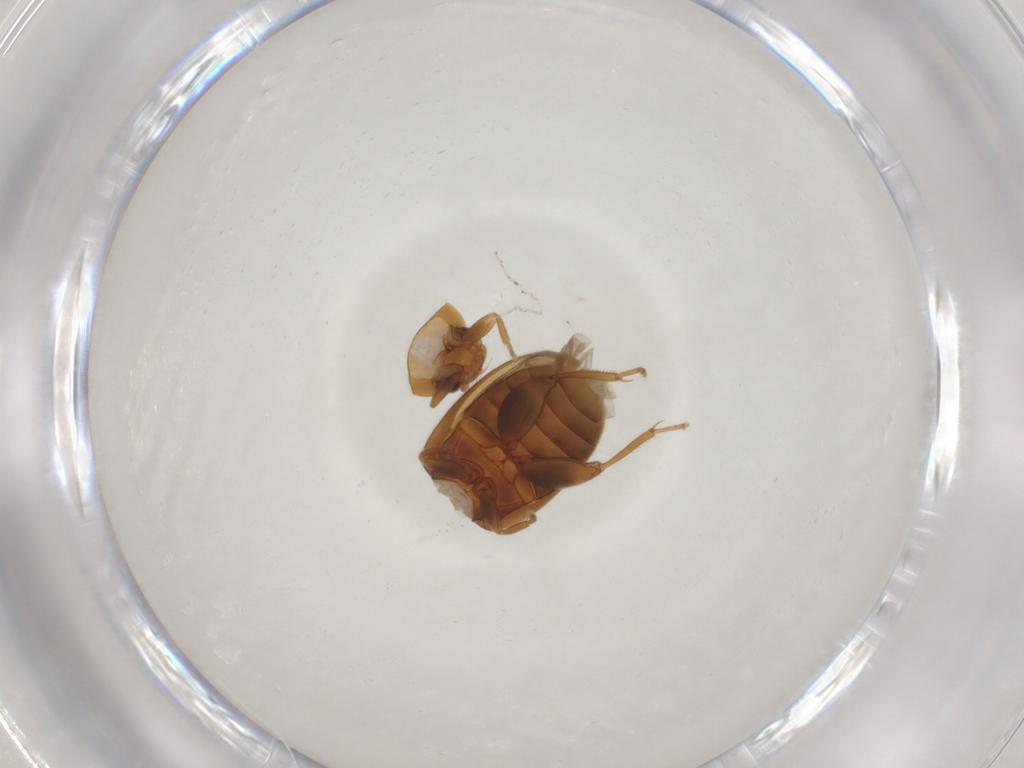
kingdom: Animalia
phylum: Arthropoda
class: Insecta
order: Coleoptera
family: Scirtidae
